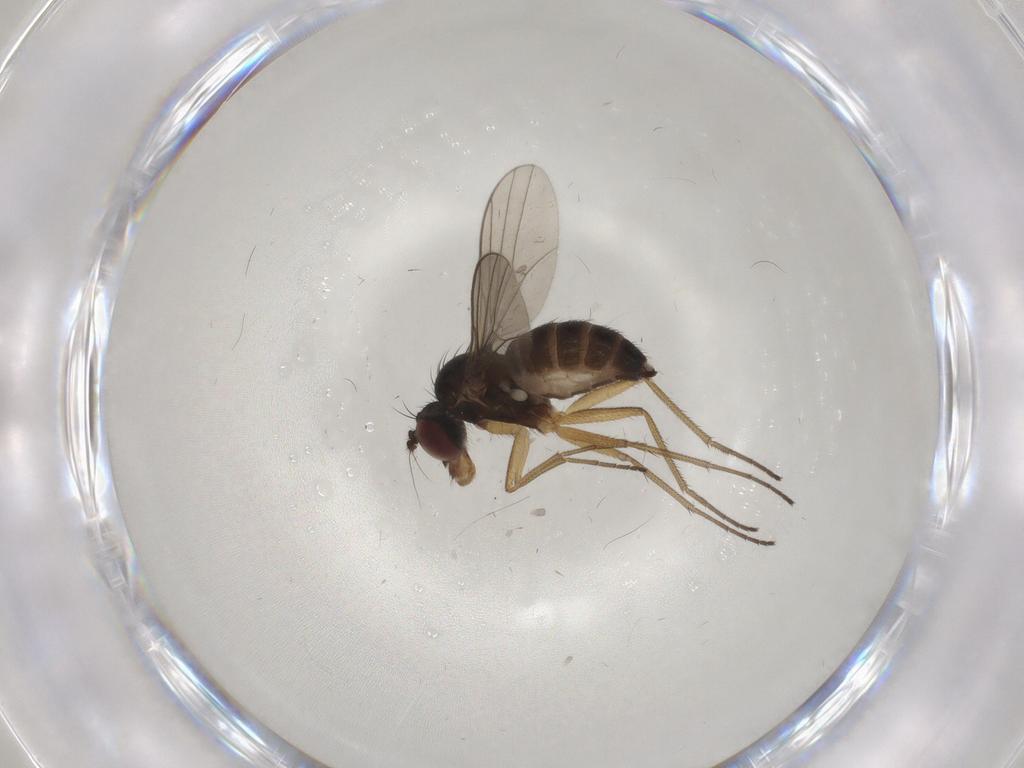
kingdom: Animalia
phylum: Arthropoda
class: Insecta
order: Diptera
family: Dolichopodidae
